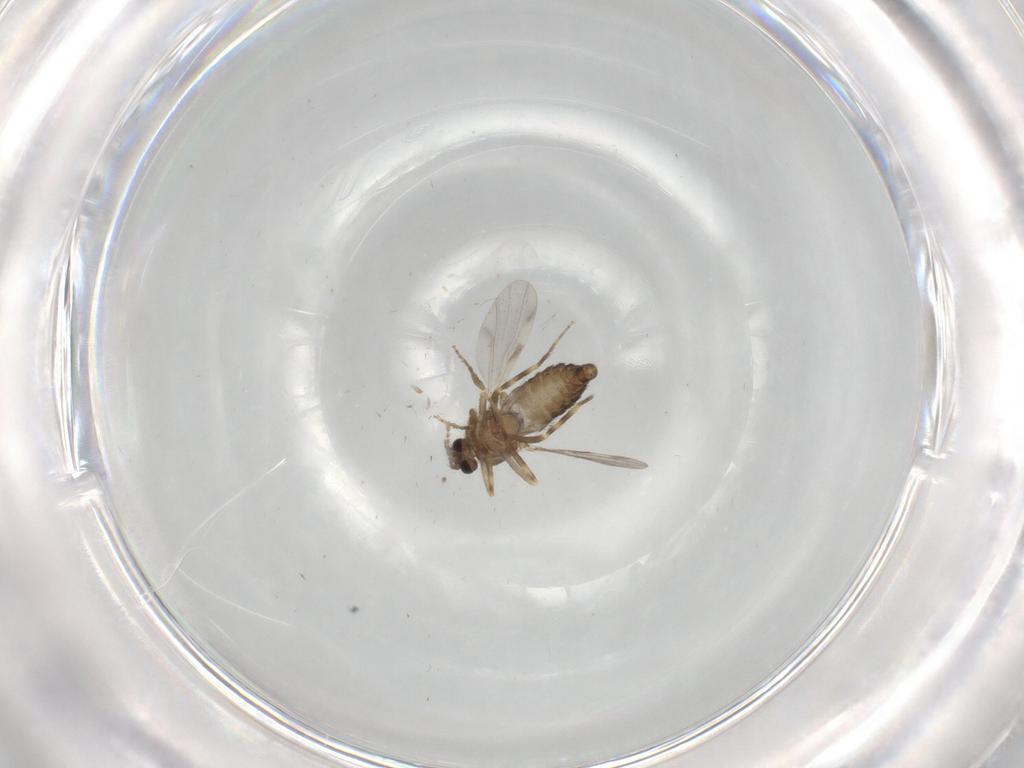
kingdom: Animalia
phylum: Arthropoda
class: Insecta
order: Diptera
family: Ceratopogonidae
